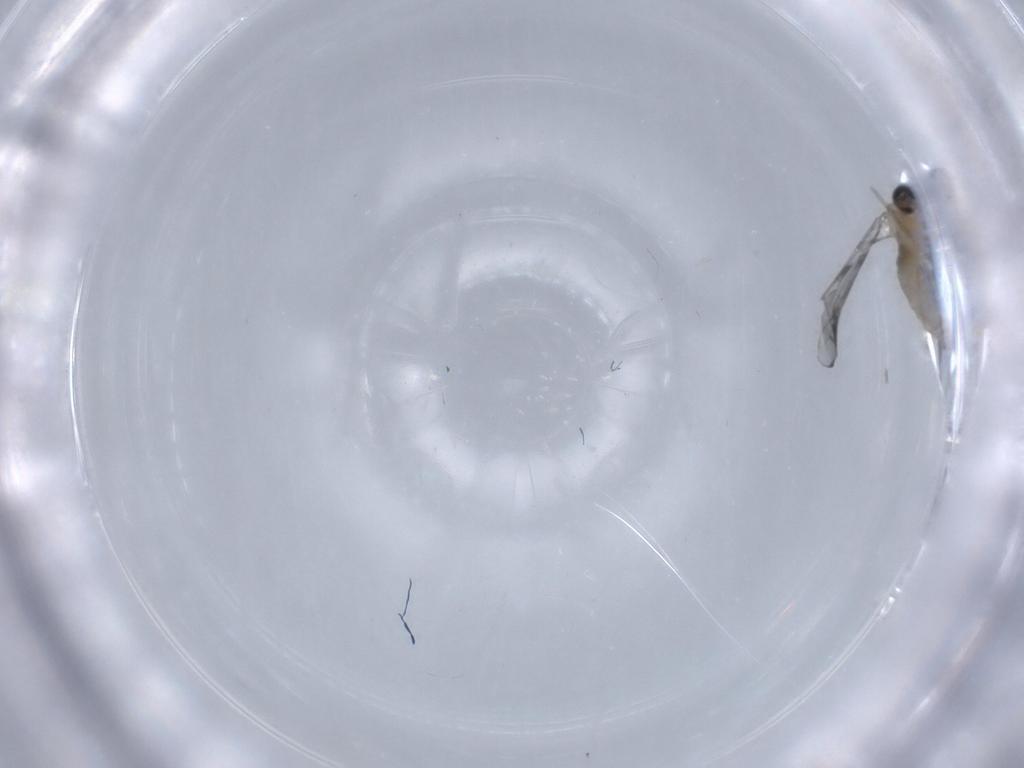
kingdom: Animalia
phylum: Arthropoda
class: Insecta
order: Diptera
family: Cecidomyiidae
